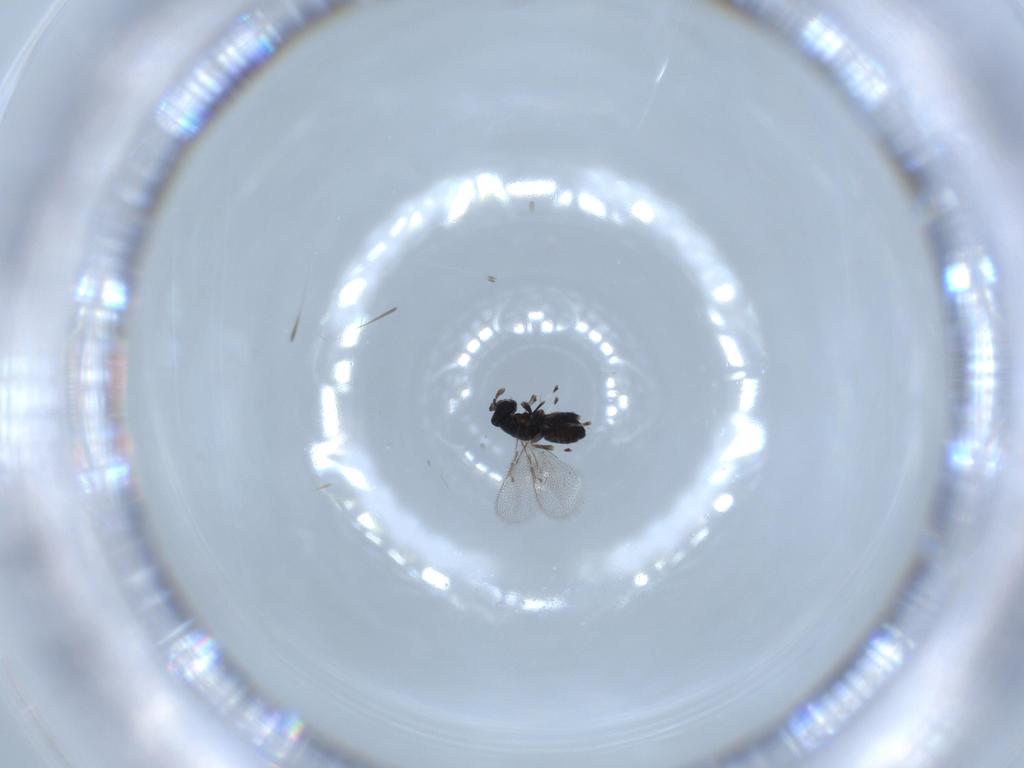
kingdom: Animalia
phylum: Arthropoda
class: Insecta
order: Hymenoptera
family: Eulophidae
